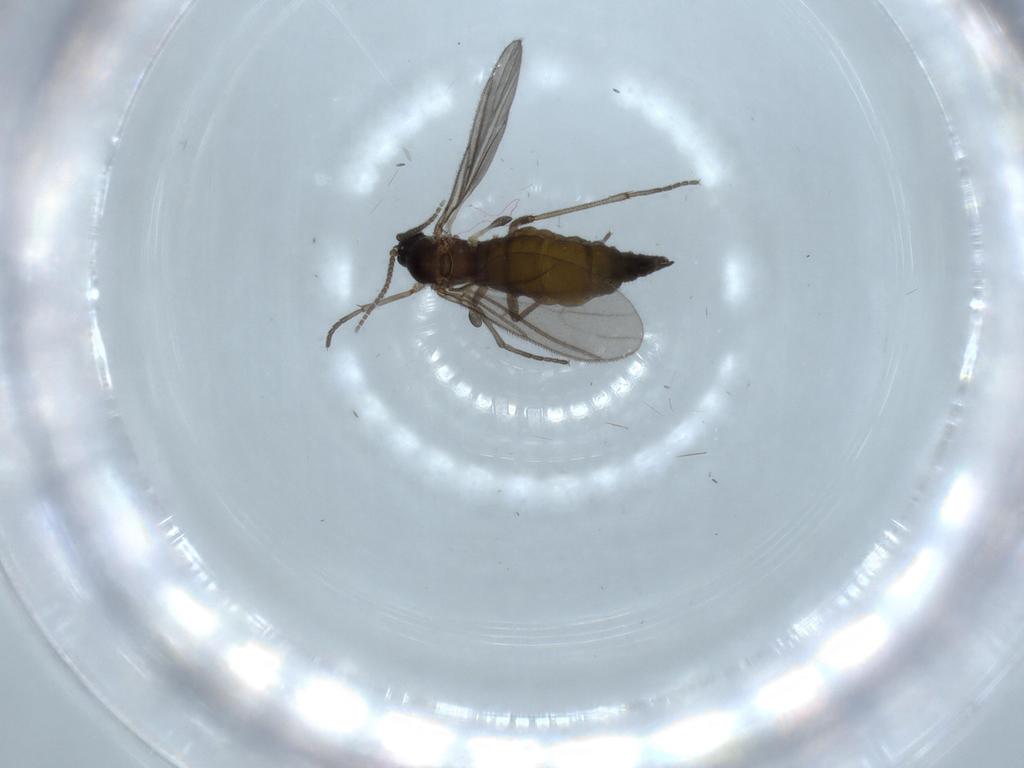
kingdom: Animalia
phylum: Arthropoda
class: Insecta
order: Diptera
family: Sciaridae
